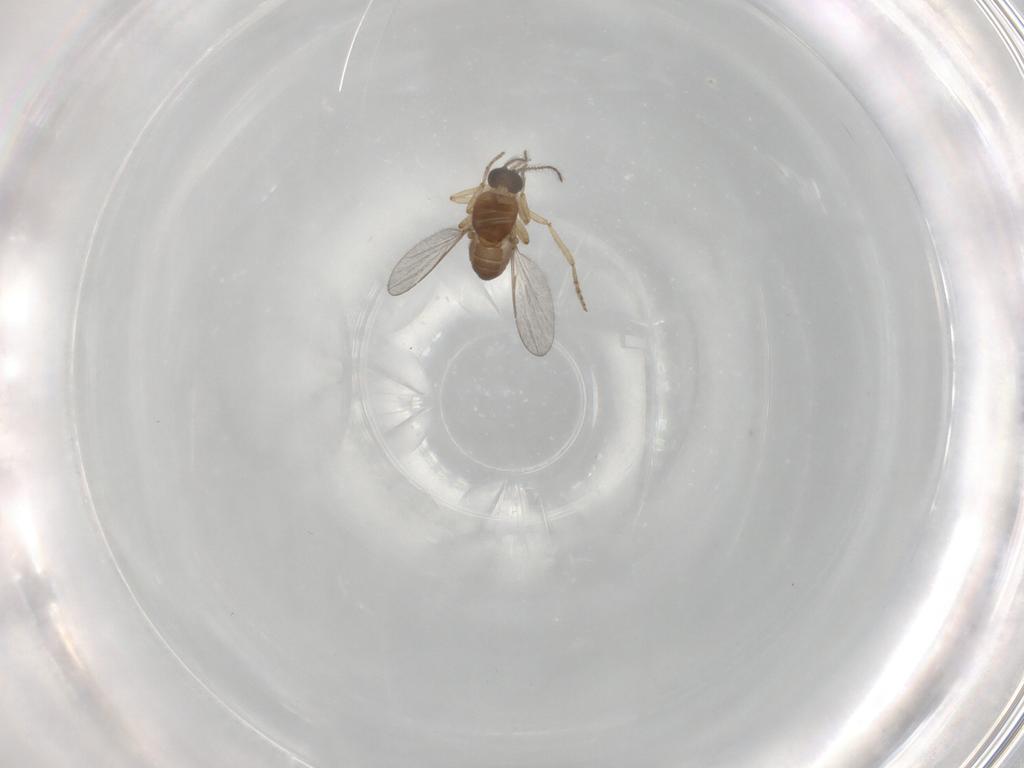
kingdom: Animalia
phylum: Arthropoda
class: Insecta
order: Diptera
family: Ceratopogonidae
